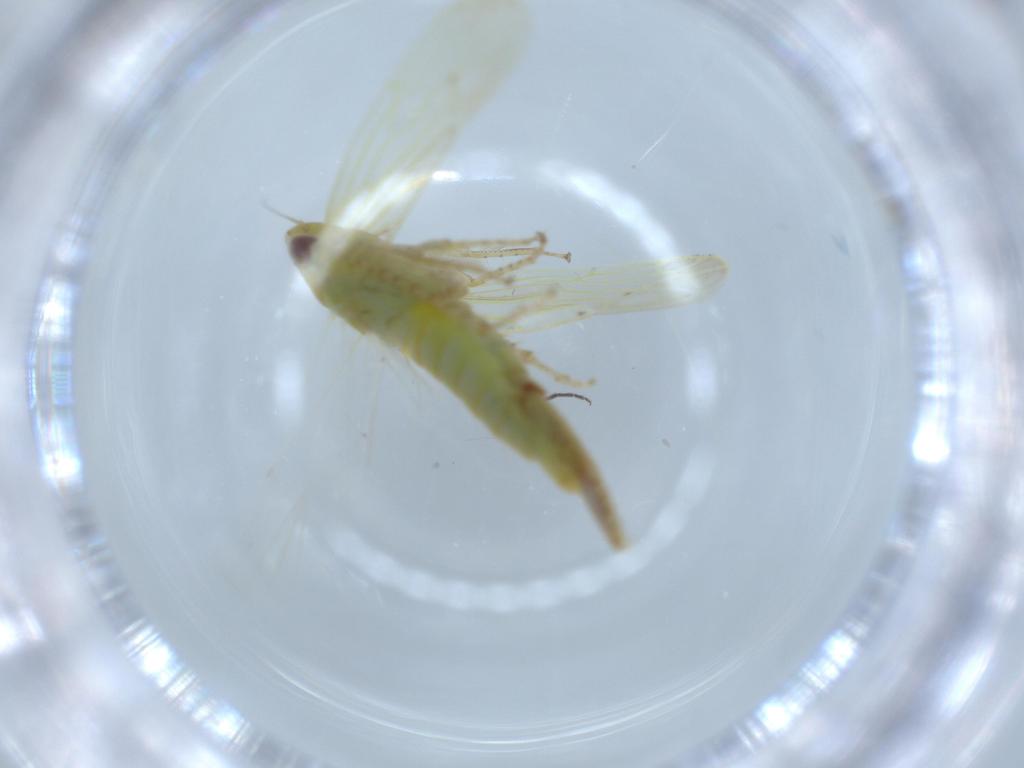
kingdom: Animalia
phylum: Arthropoda
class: Insecta
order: Hemiptera
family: Cicadellidae
